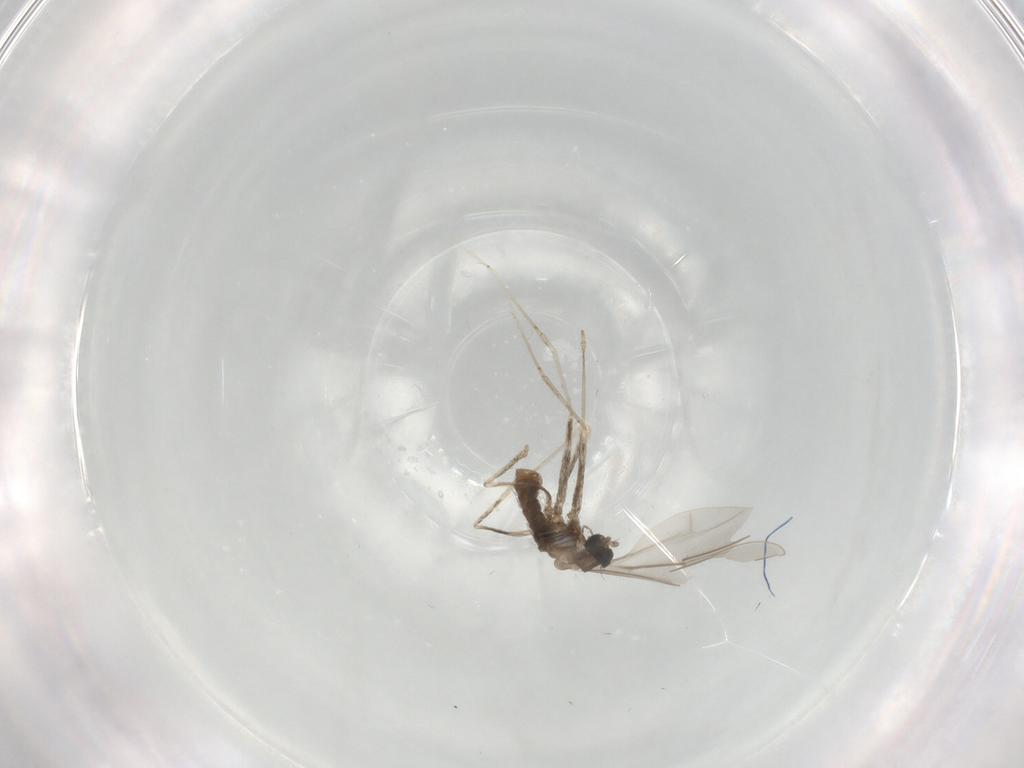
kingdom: Animalia
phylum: Arthropoda
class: Insecta
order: Diptera
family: Cecidomyiidae
